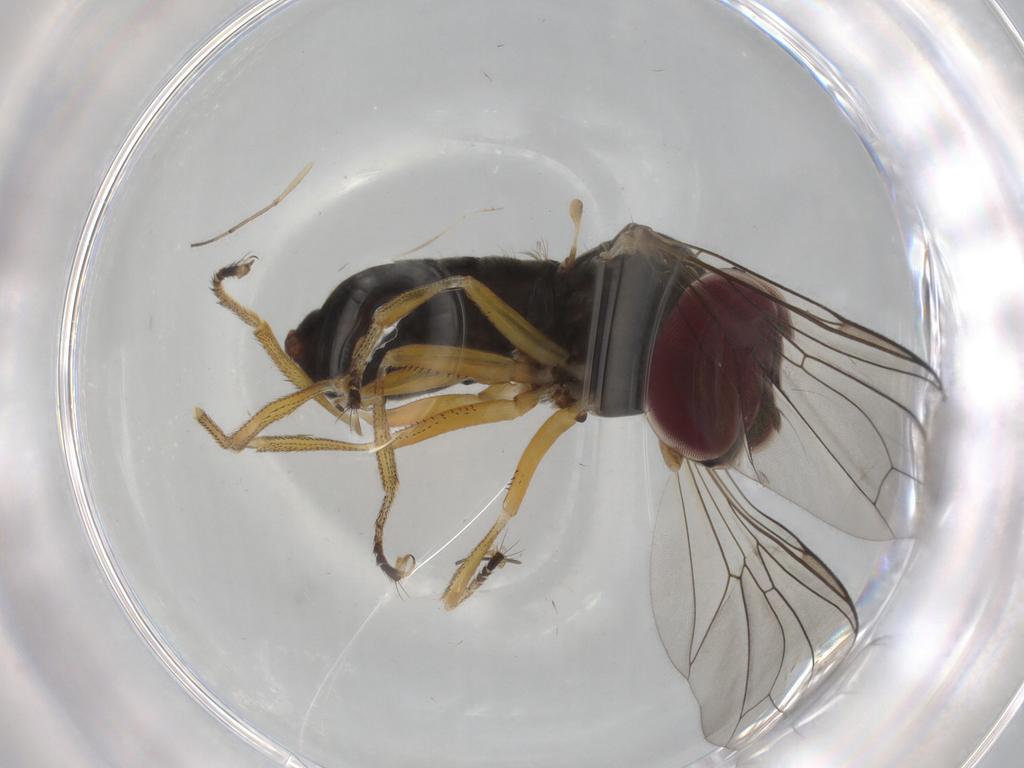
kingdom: Animalia
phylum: Arthropoda
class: Insecta
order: Diptera
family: Pipunculidae
